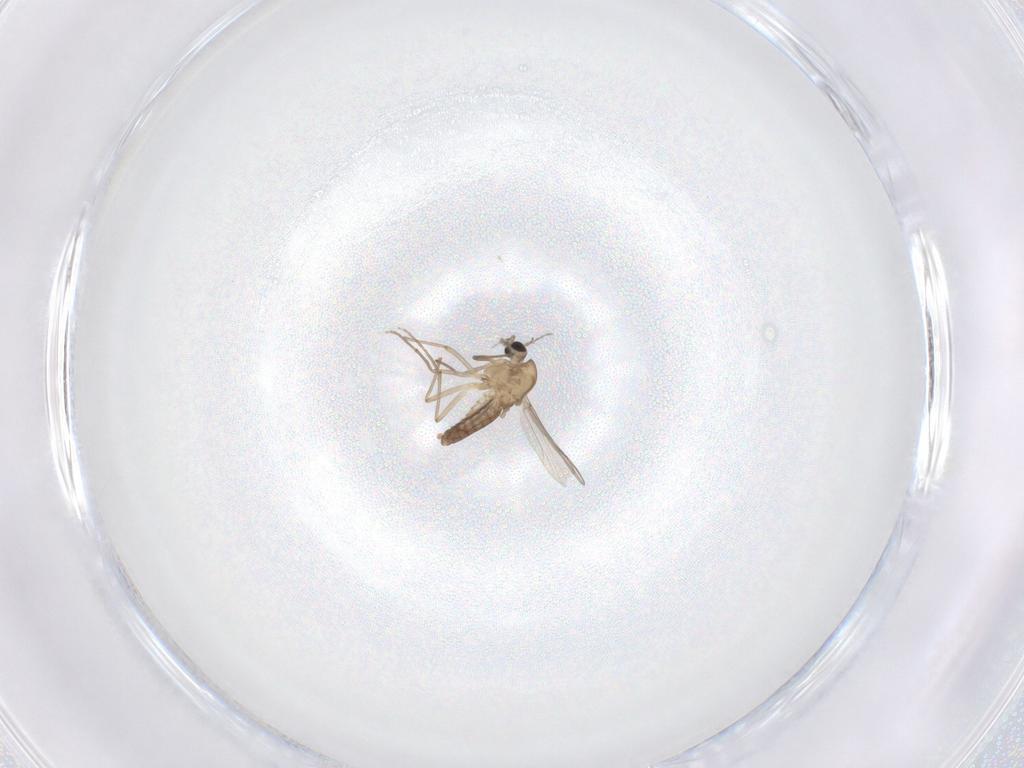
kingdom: Animalia
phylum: Arthropoda
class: Insecta
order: Diptera
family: Chironomidae
